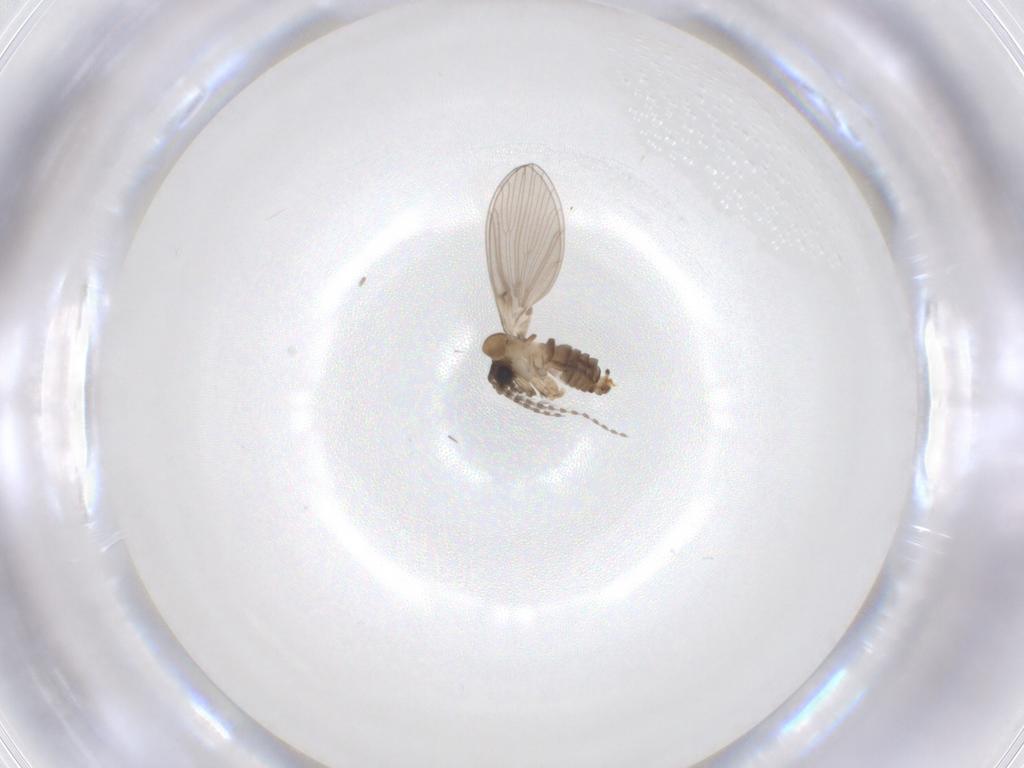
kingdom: Animalia
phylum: Arthropoda
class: Insecta
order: Diptera
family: Psychodidae
